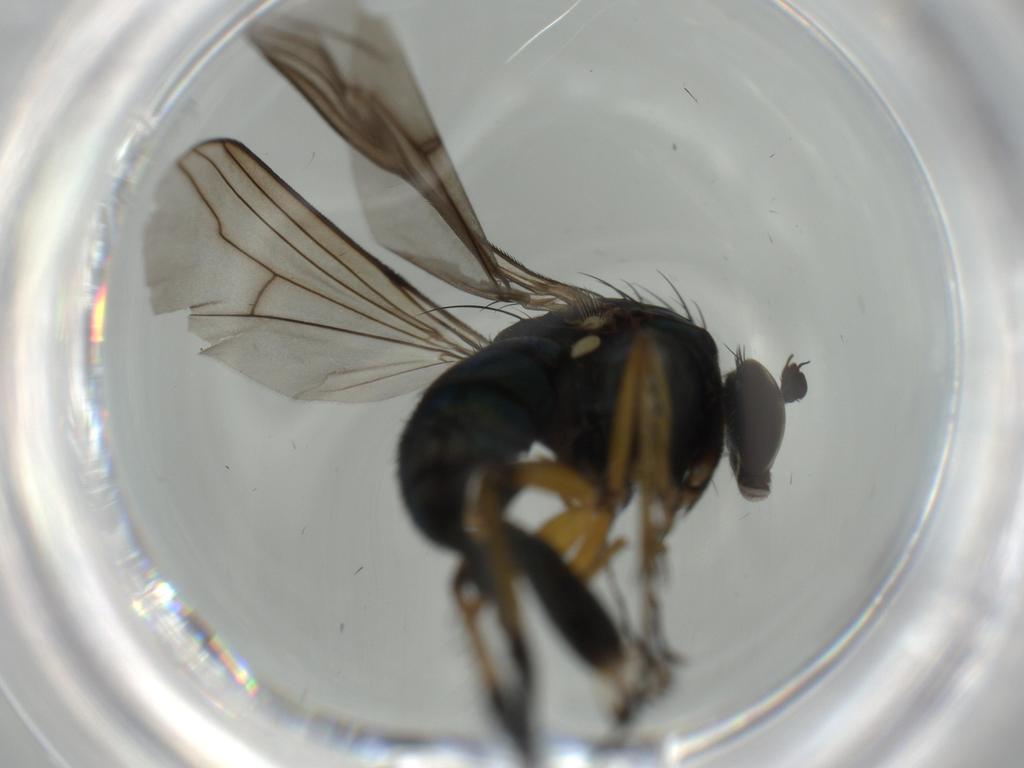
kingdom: Animalia
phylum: Arthropoda
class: Insecta
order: Diptera
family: Dolichopodidae
